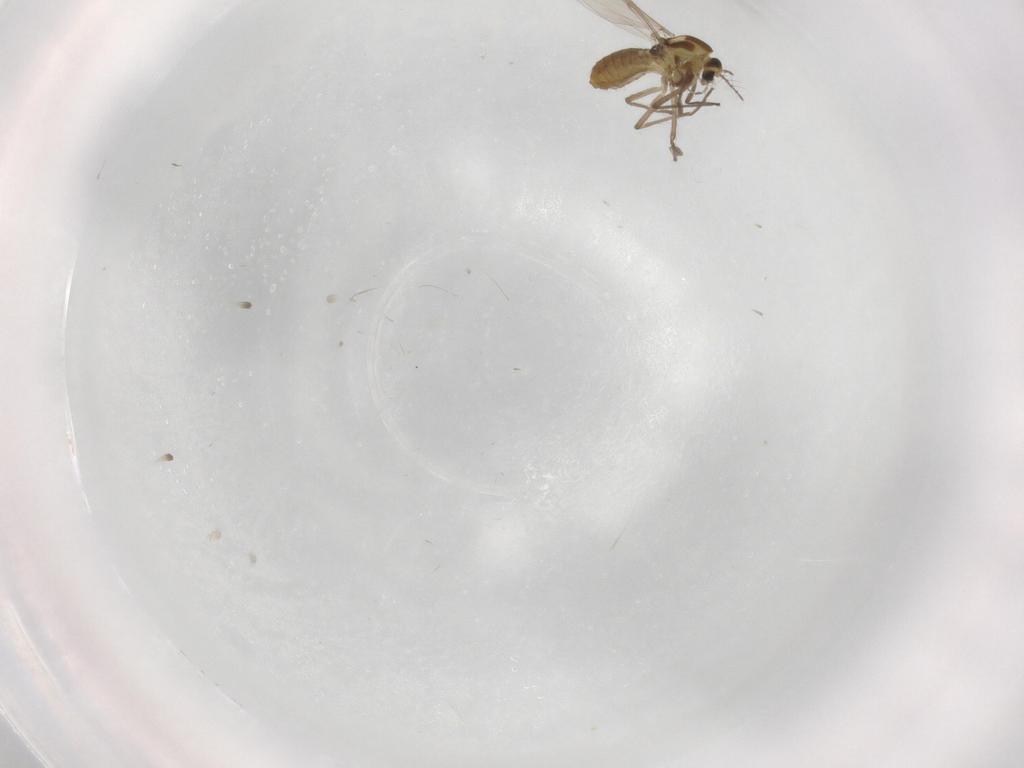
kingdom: Animalia
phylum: Arthropoda
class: Insecta
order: Diptera
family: Chironomidae
